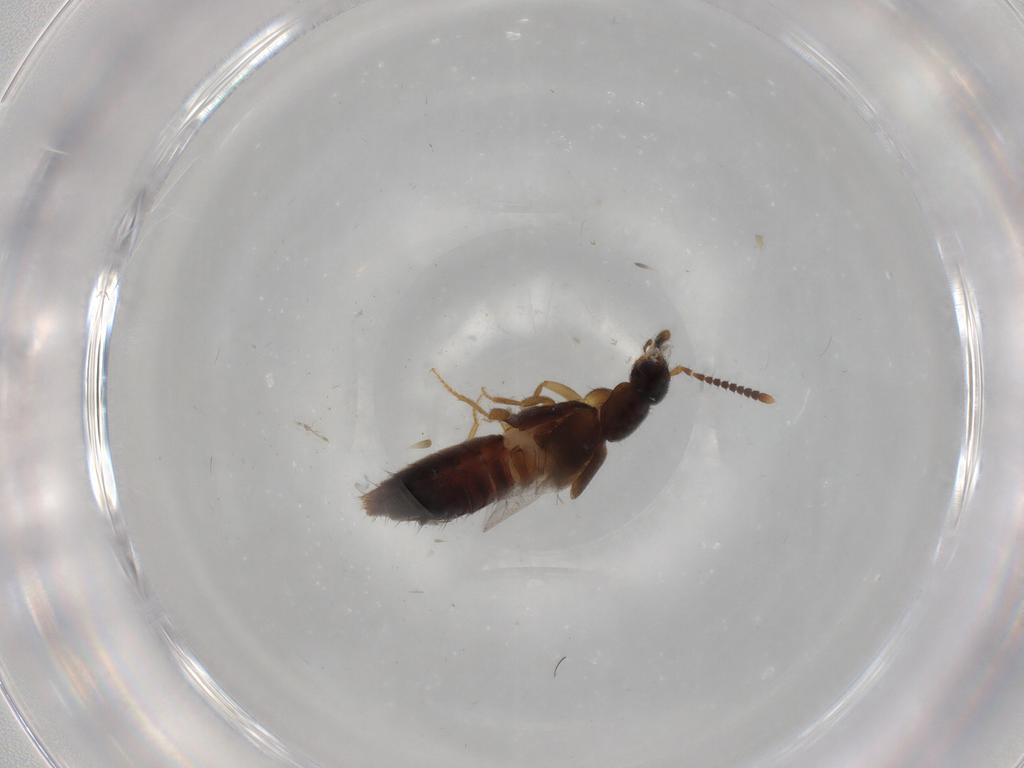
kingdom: Animalia
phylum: Arthropoda
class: Insecta
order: Coleoptera
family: Staphylinidae
